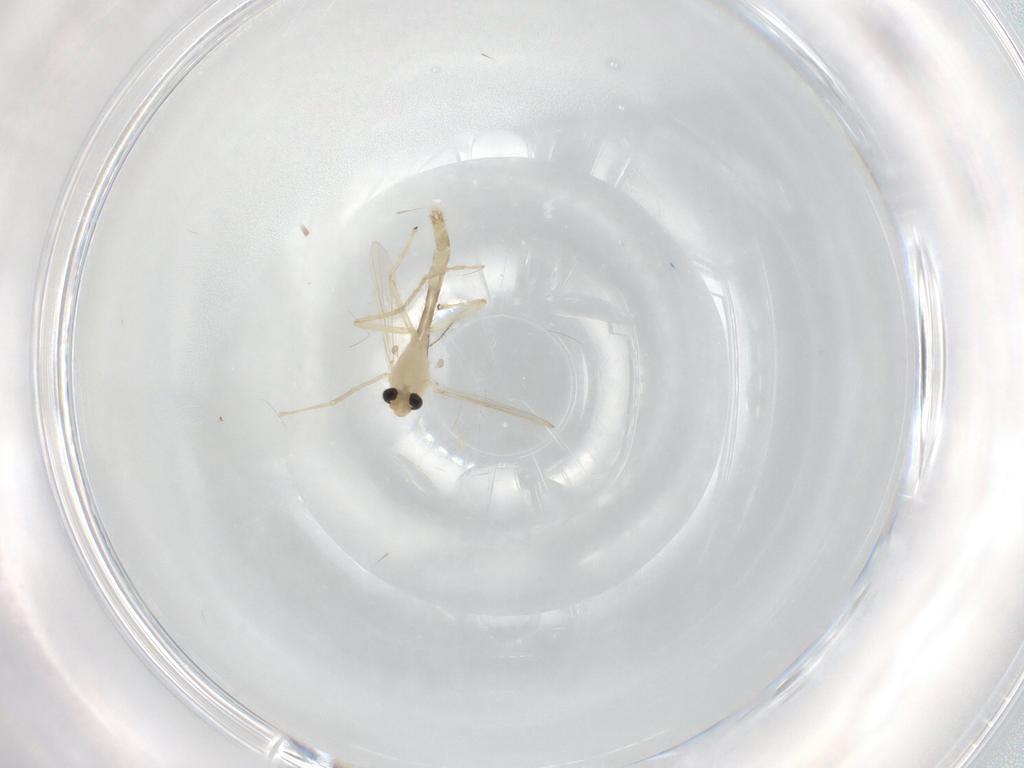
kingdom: Animalia
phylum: Arthropoda
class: Insecta
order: Diptera
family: Chironomidae
